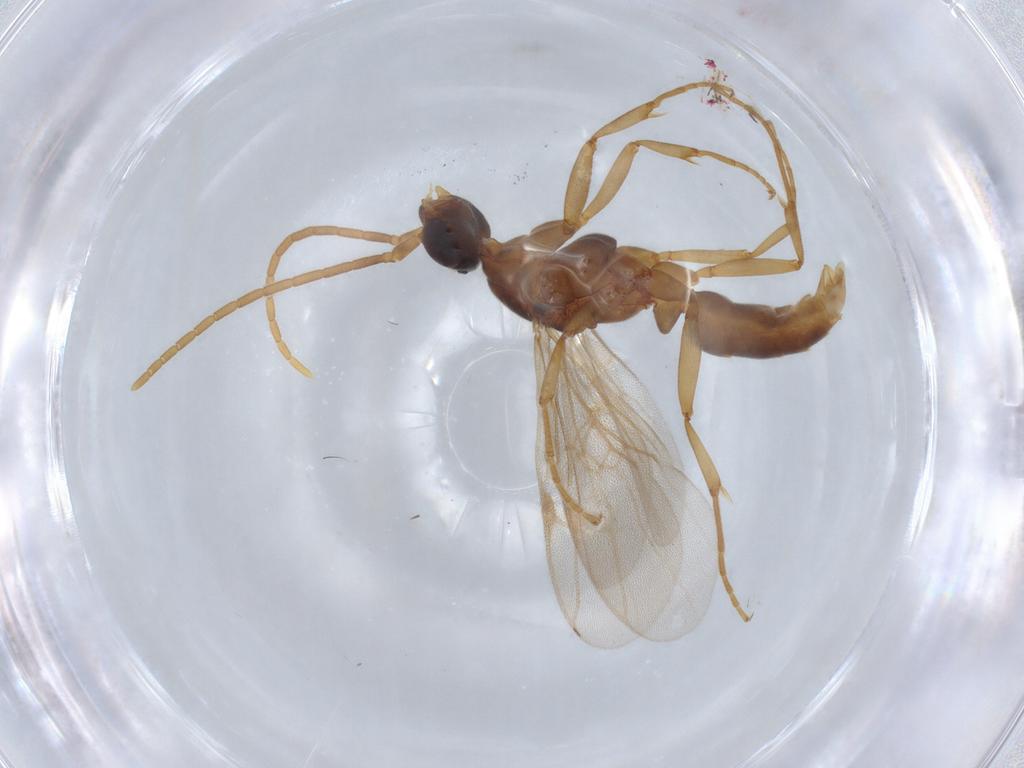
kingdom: Animalia
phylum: Arthropoda
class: Insecta
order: Hymenoptera
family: Formicidae
